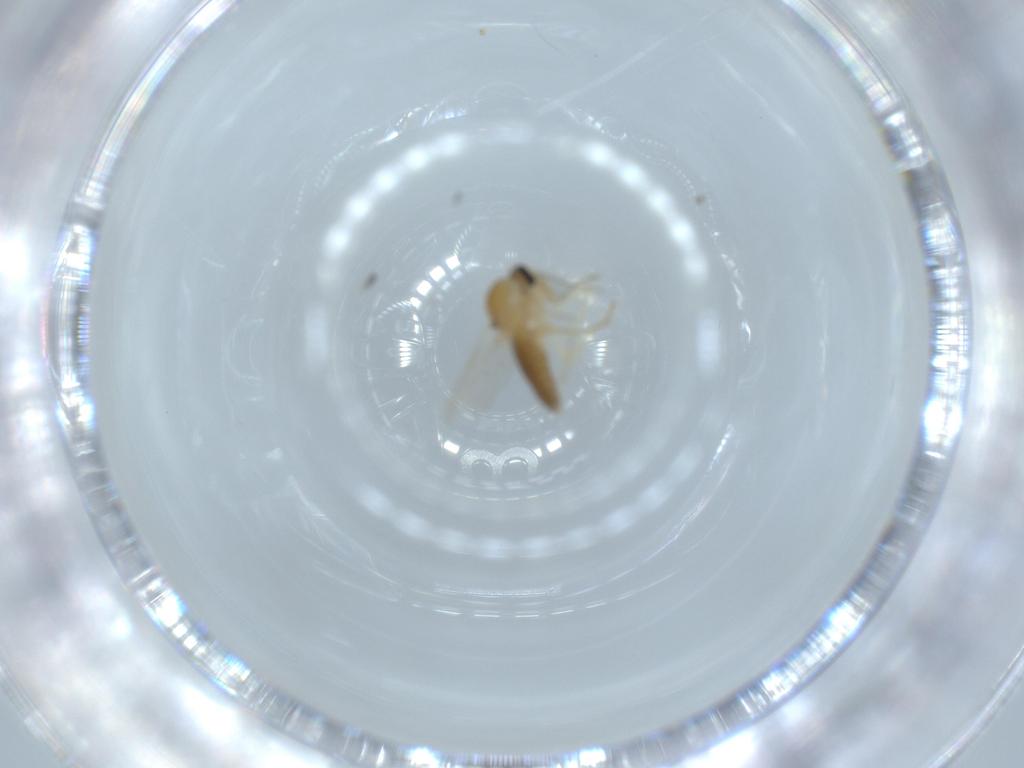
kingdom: Animalia
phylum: Arthropoda
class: Insecta
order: Diptera
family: Ceratopogonidae
